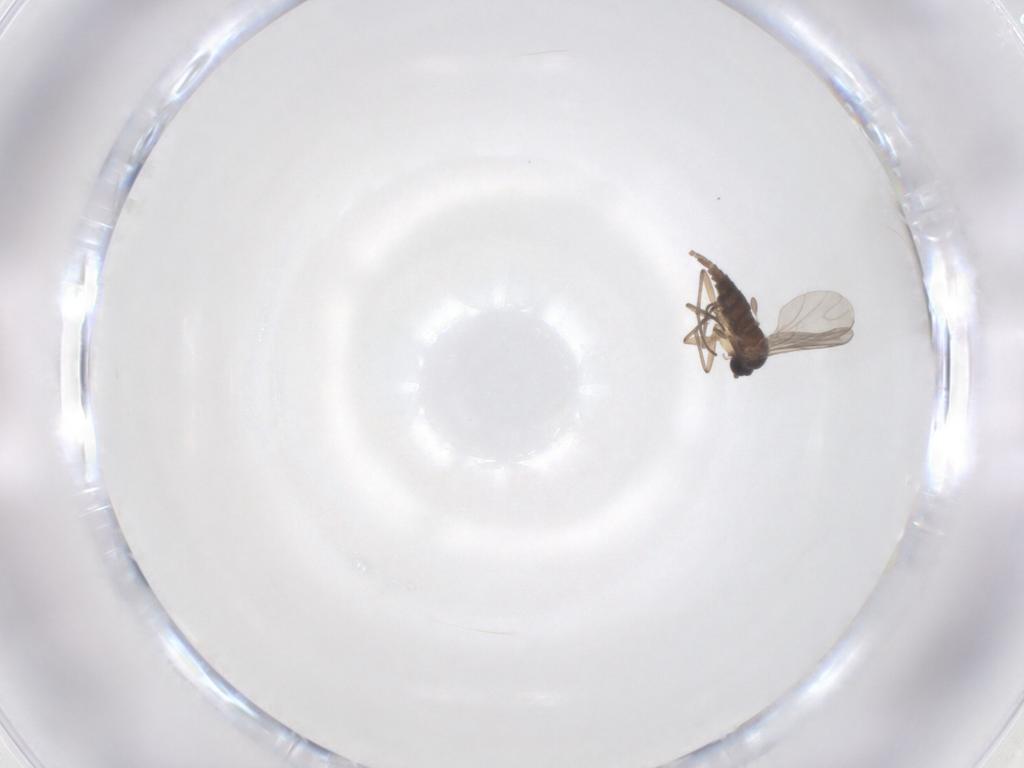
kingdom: Animalia
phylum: Arthropoda
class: Insecta
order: Diptera
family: Sciaridae
